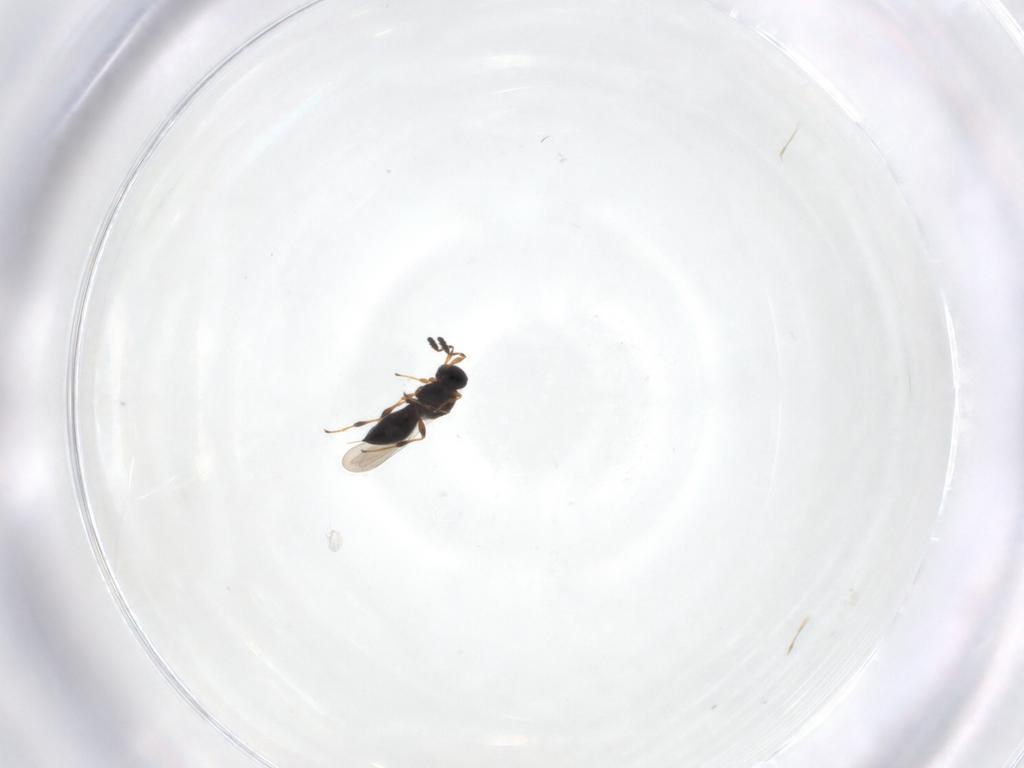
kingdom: Animalia
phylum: Arthropoda
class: Insecta
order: Hymenoptera
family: Platygastridae
